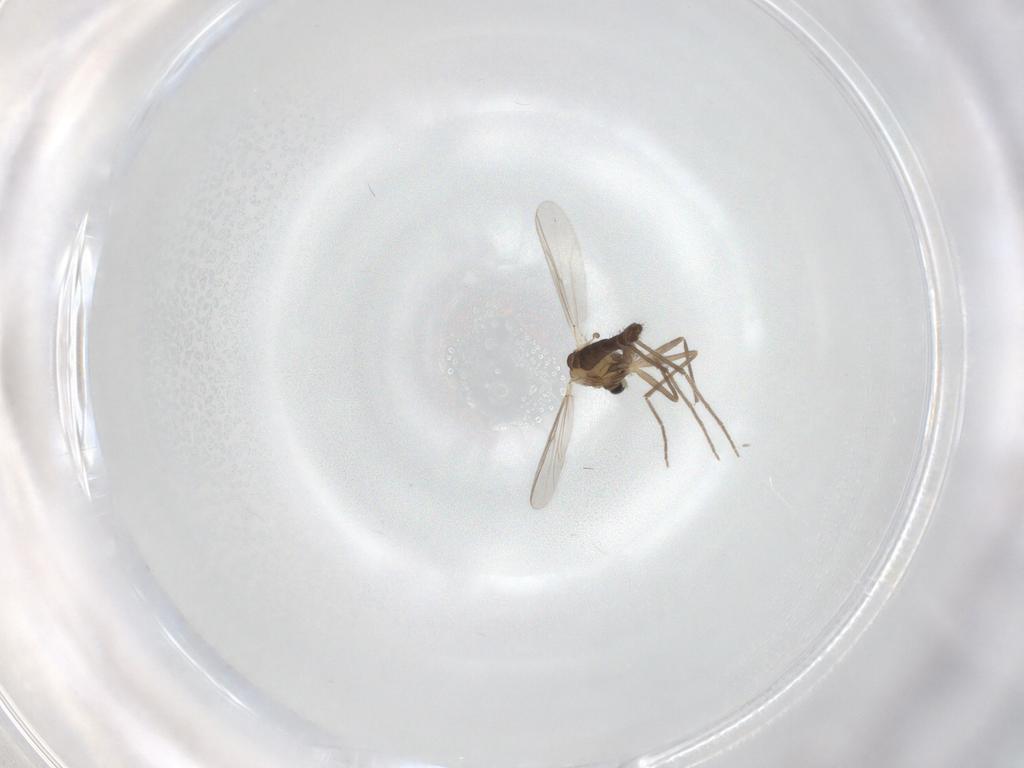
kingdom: Animalia
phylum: Arthropoda
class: Insecta
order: Diptera
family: Chironomidae
